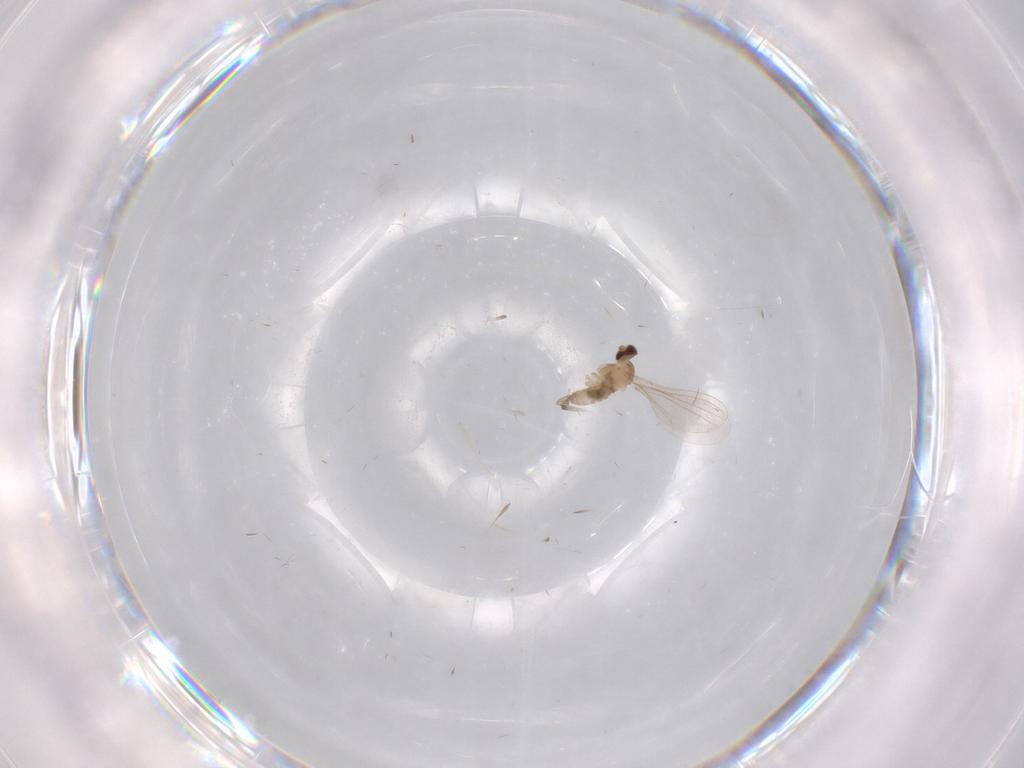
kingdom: Animalia
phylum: Arthropoda
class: Insecta
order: Diptera
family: Cecidomyiidae
